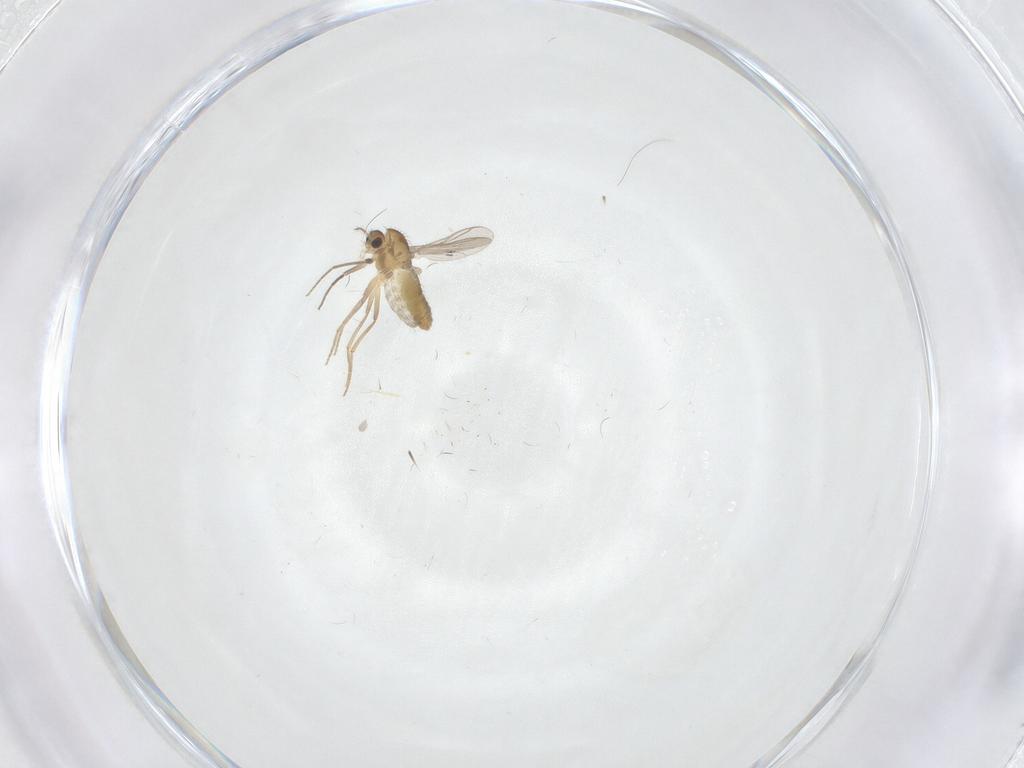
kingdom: Animalia
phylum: Arthropoda
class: Insecta
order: Diptera
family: Chironomidae
